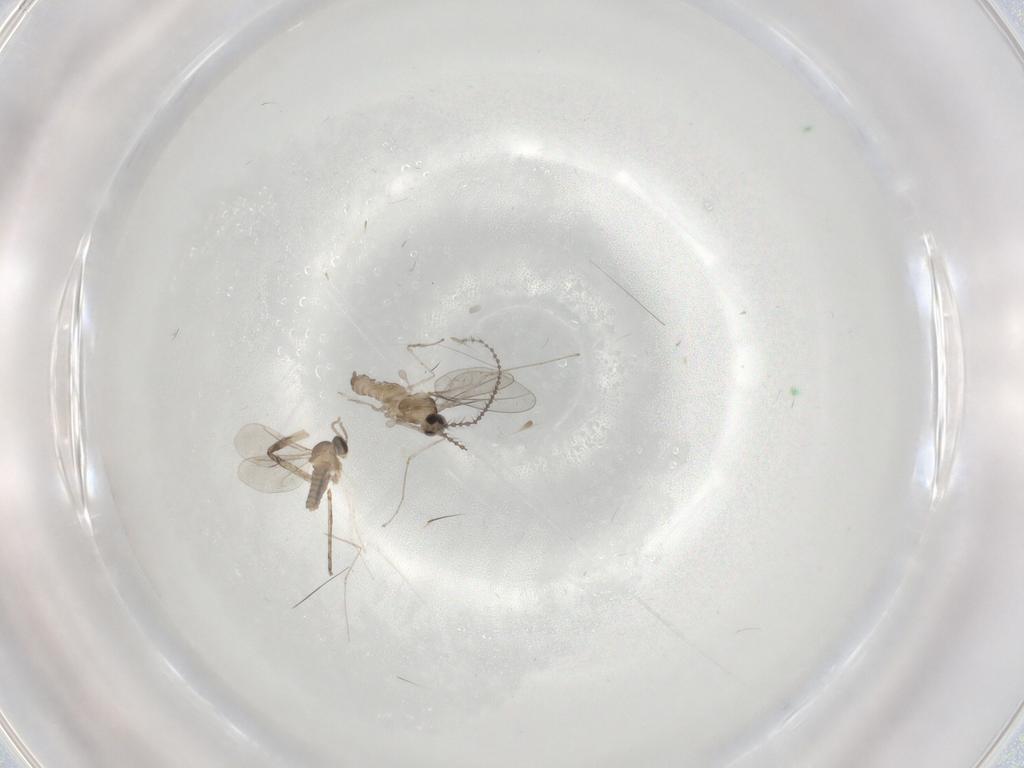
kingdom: Animalia
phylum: Arthropoda
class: Insecta
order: Diptera
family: Cecidomyiidae
